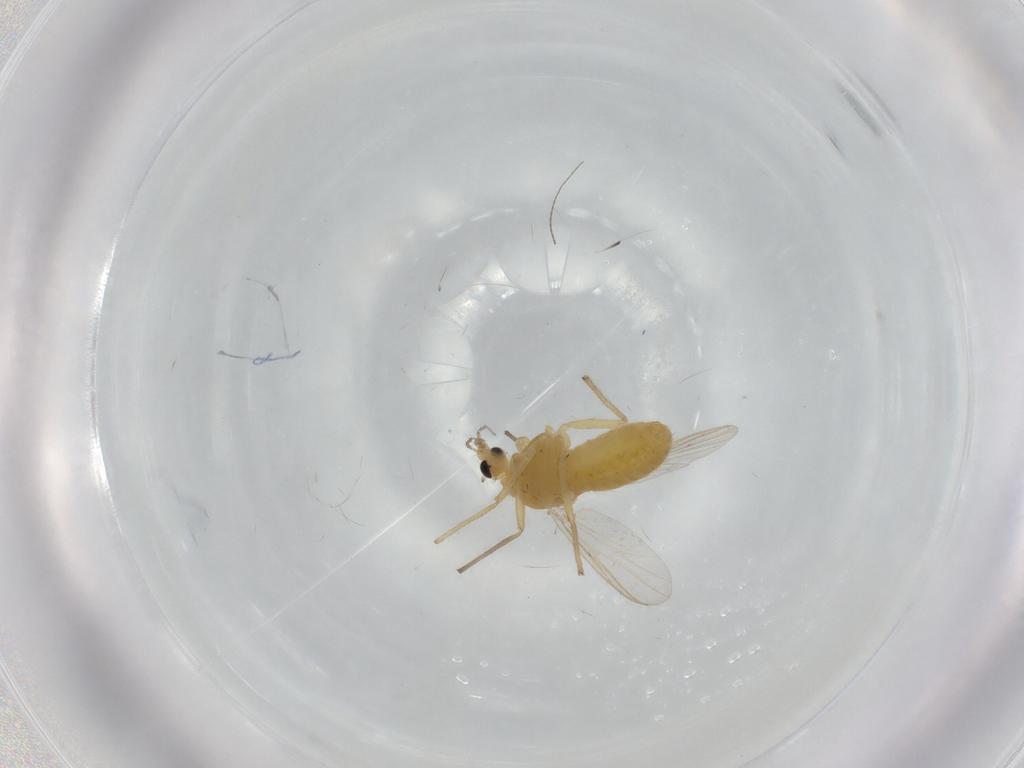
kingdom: Animalia
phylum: Arthropoda
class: Insecta
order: Diptera
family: Chironomidae
